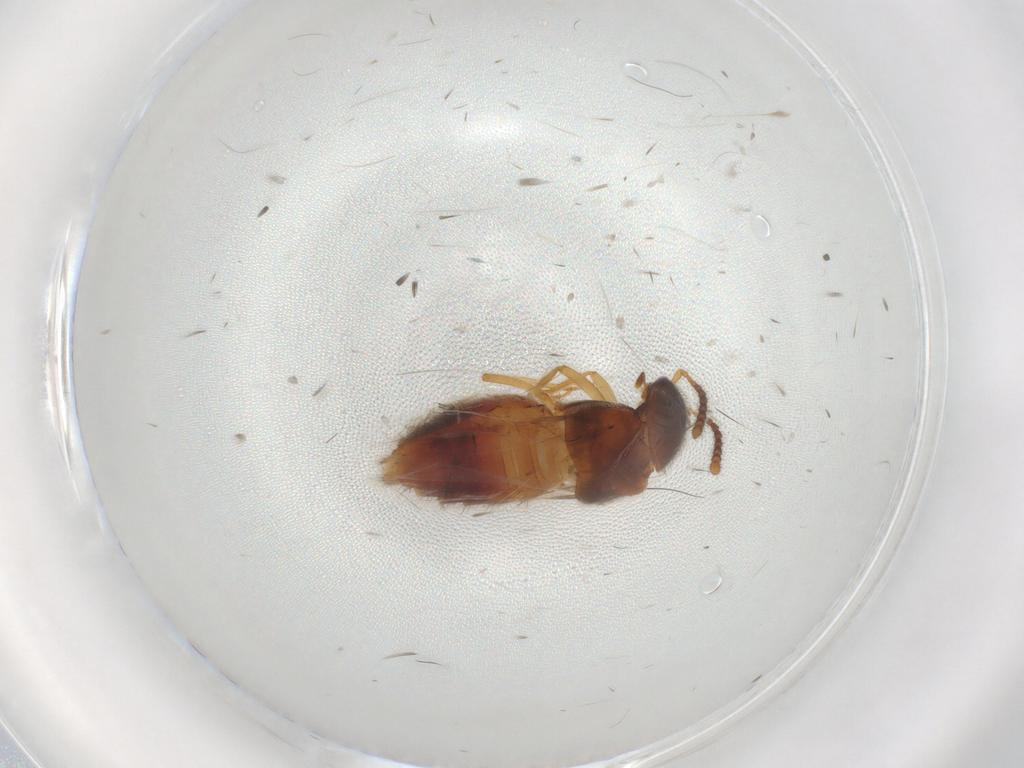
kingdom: Animalia
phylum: Arthropoda
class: Insecta
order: Coleoptera
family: Staphylinidae
